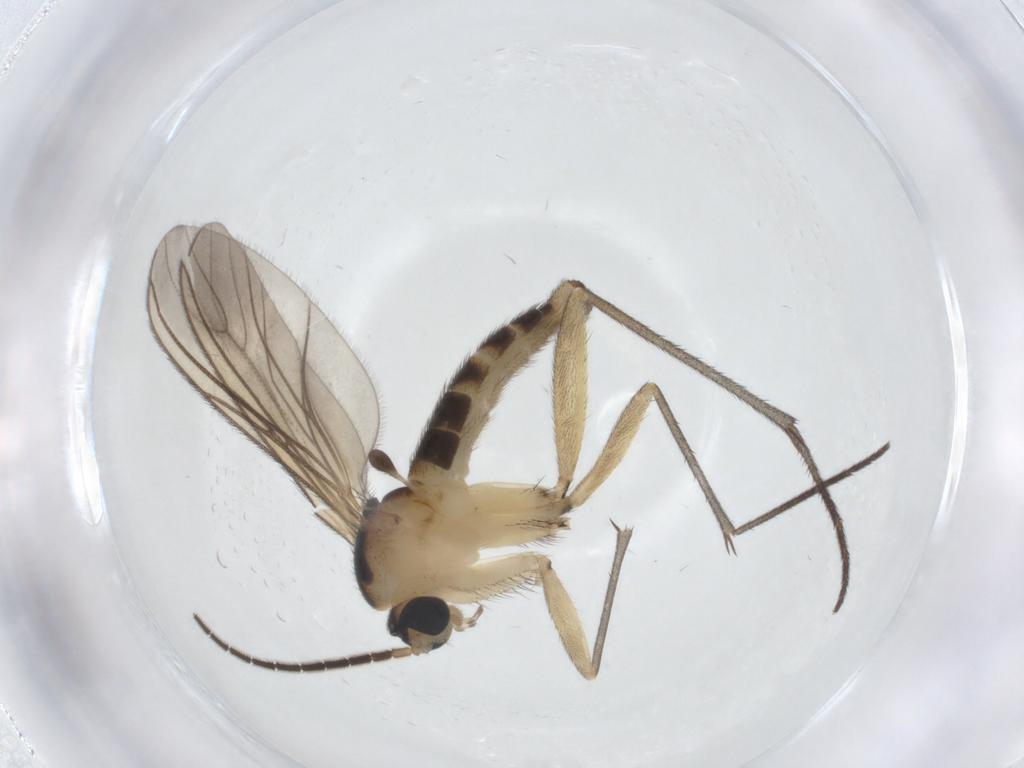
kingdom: Animalia
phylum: Arthropoda
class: Insecta
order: Diptera
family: Sciaridae
